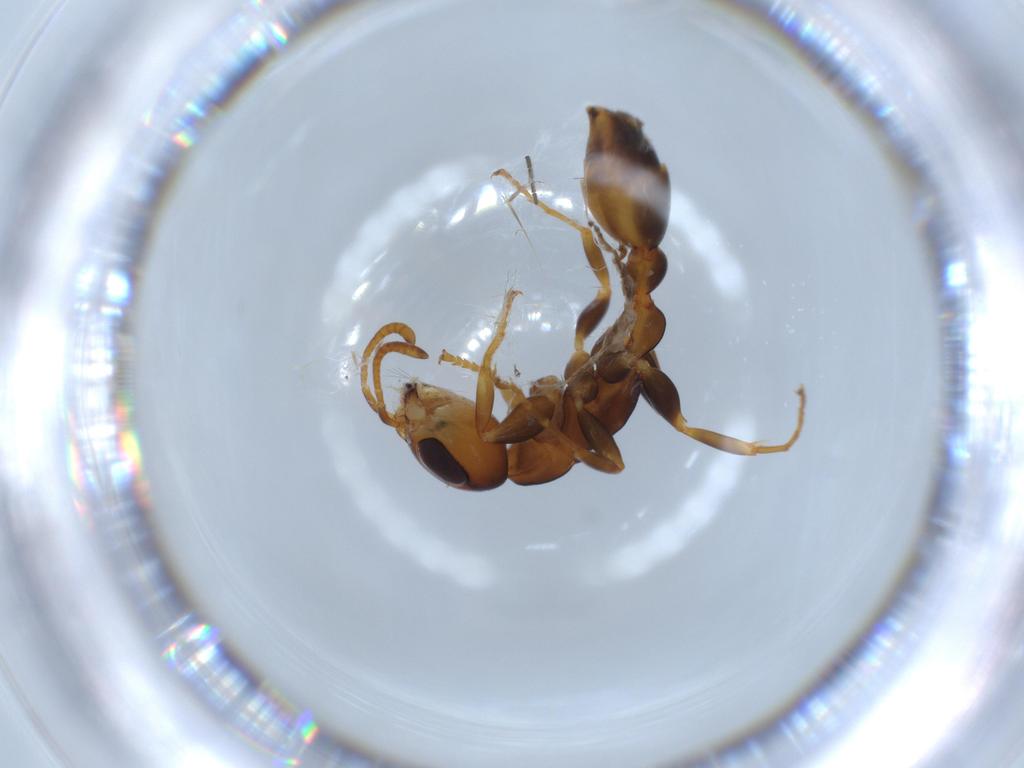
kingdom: Animalia
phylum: Arthropoda
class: Insecta
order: Hymenoptera
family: Formicidae
